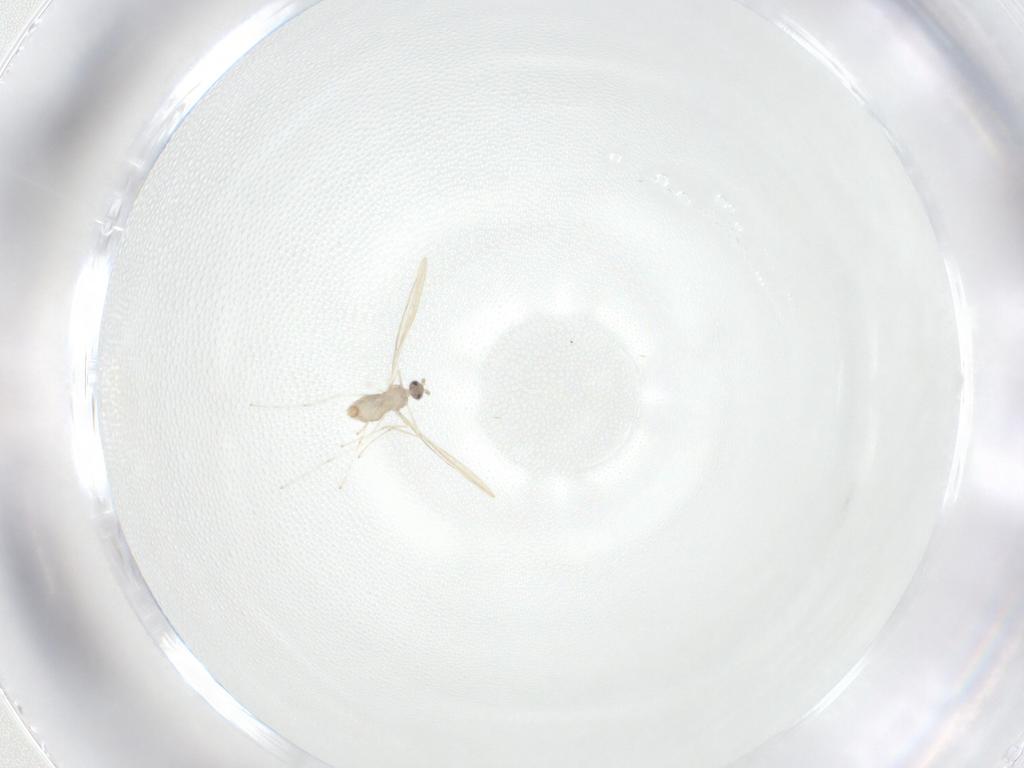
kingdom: Animalia
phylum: Arthropoda
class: Insecta
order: Diptera
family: Cecidomyiidae
